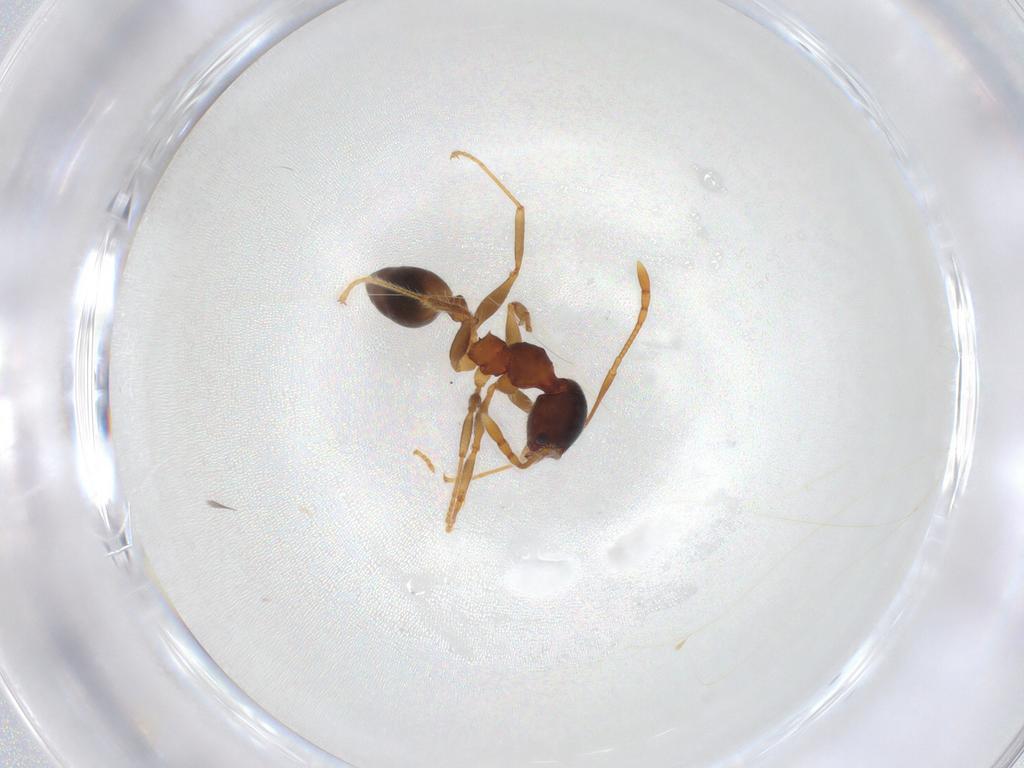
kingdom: Animalia
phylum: Arthropoda
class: Insecta
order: Hymenoptera
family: Formicidae
